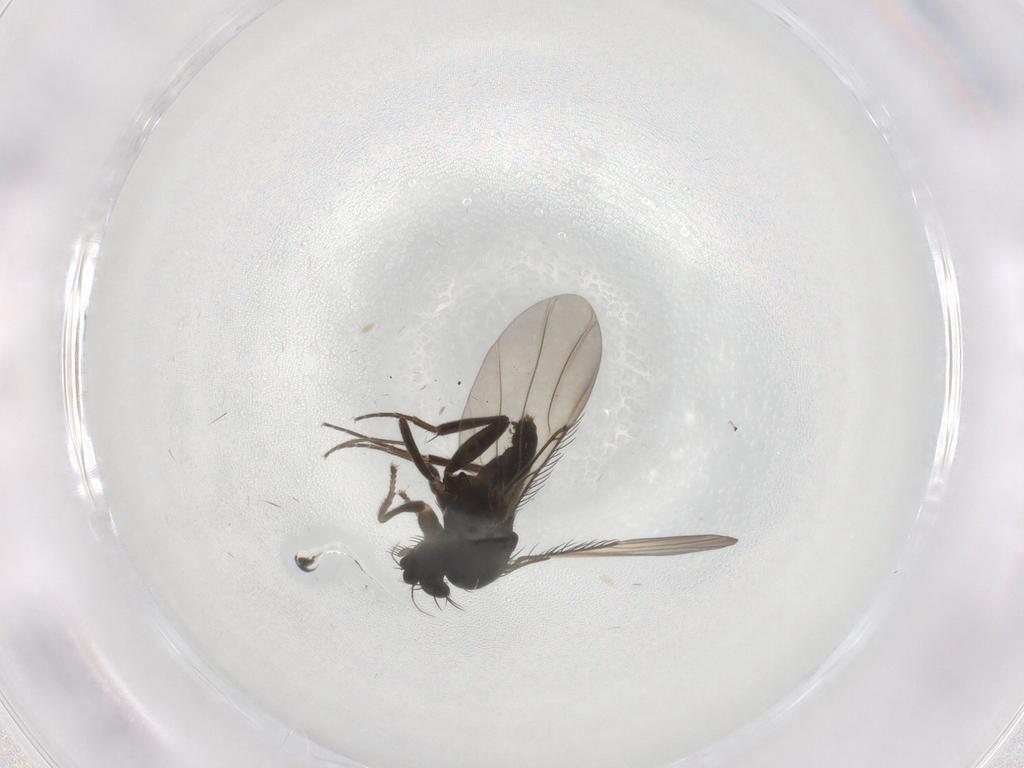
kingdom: Animalia
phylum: Arthropoda
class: Insecta
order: Diptera
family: Phoridae
